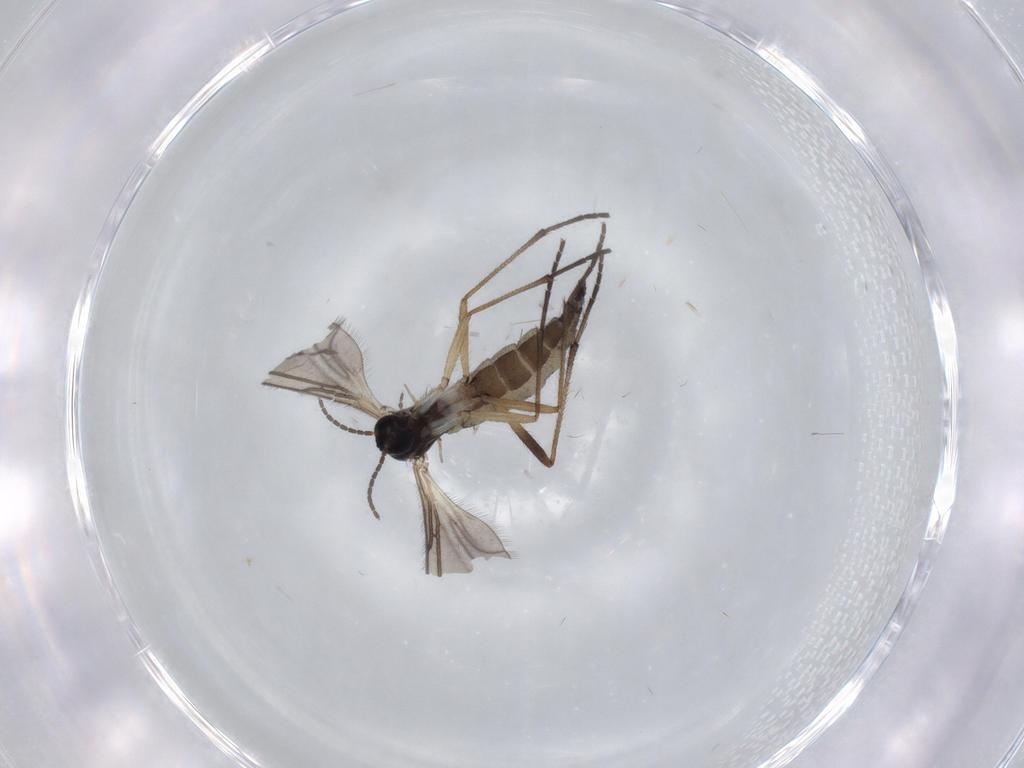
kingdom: Animalia
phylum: Arthropoda
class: Insecta
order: Diptera
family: Sciaridae
